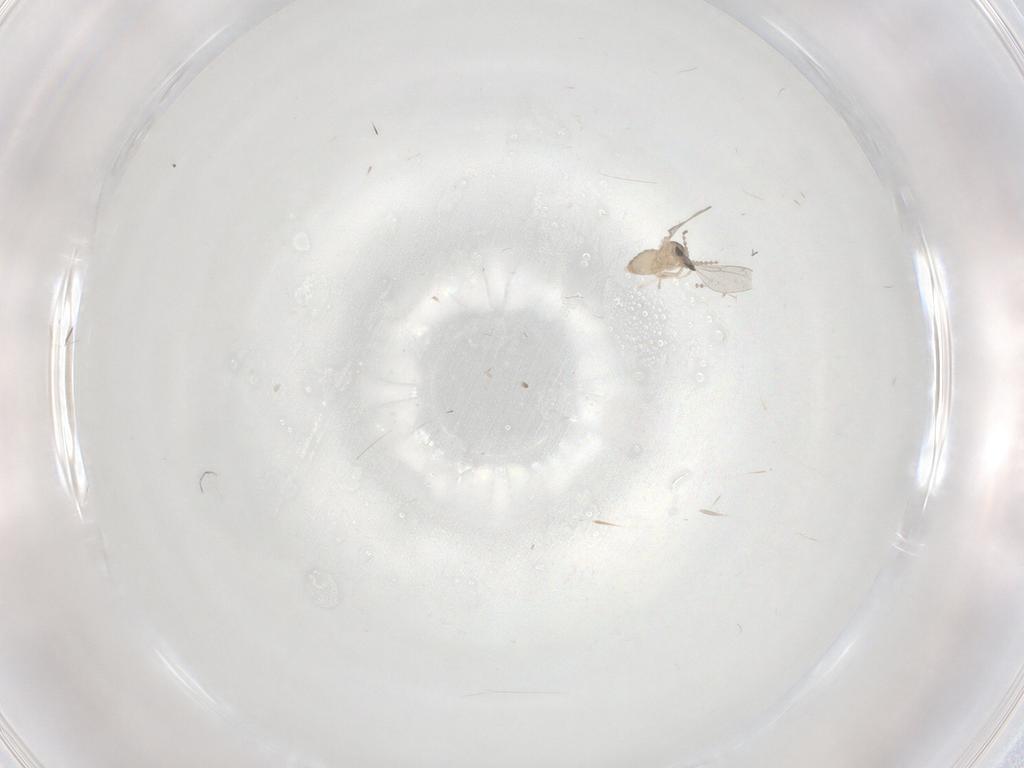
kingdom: Animalia
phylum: Arthropoda
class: Insecta
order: Diptera
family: Cecidomyiidae
